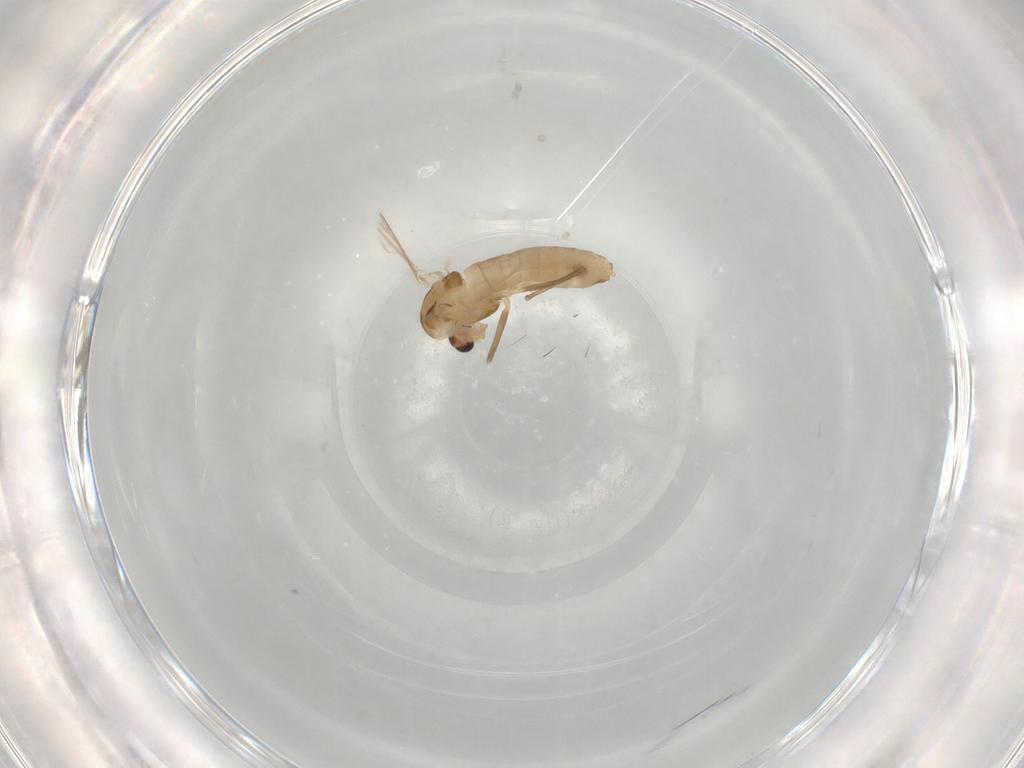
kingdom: Animalia
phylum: Arthropoda
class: Insecta
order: Diptera
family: Chironomidae
